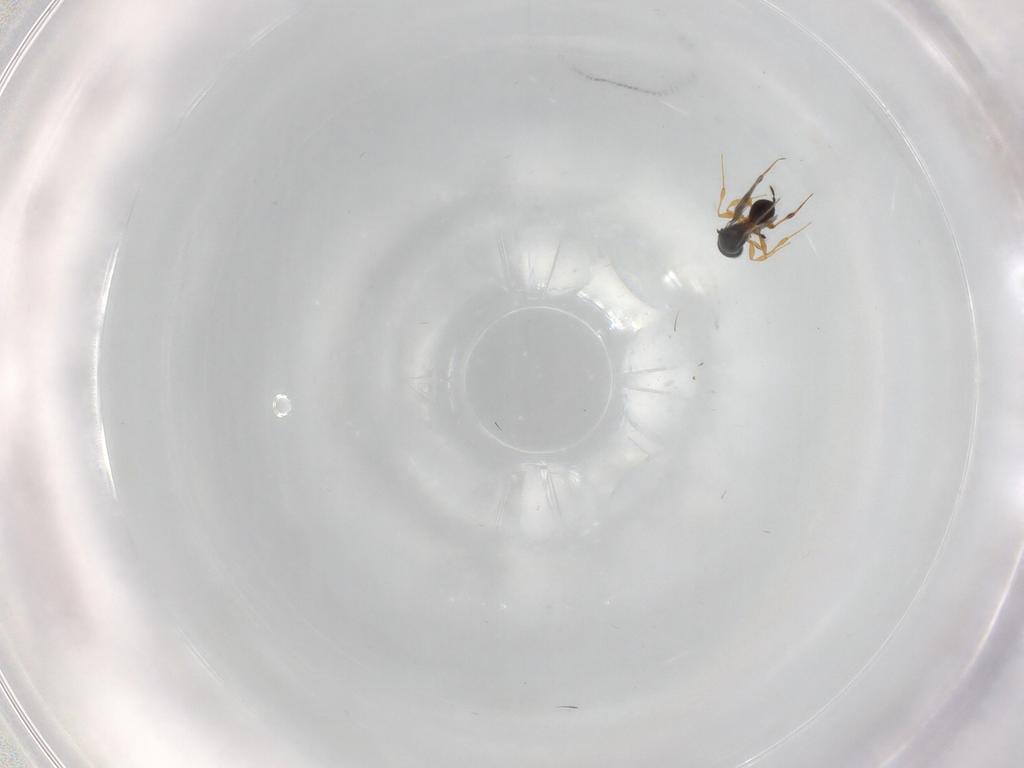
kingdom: Animalia
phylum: Arthropoda
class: Insecta
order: Hymenoptera
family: Platygastridae
